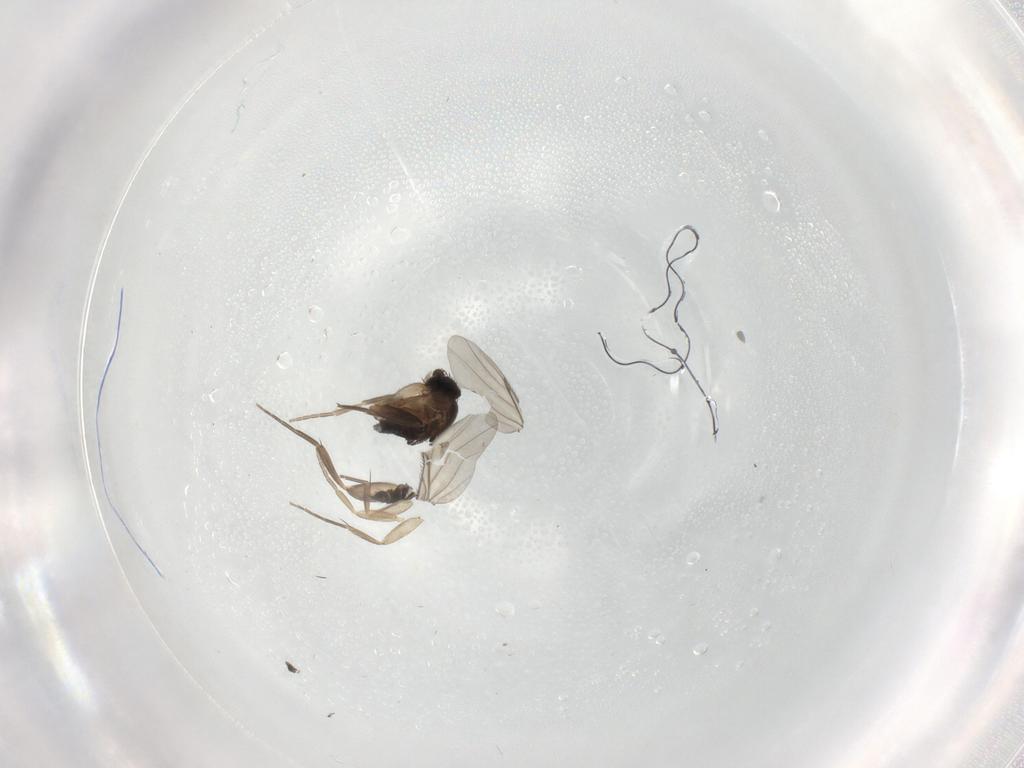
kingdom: Animalia
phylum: Arthropoda
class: Insecta
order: Diptera
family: Phoridae
